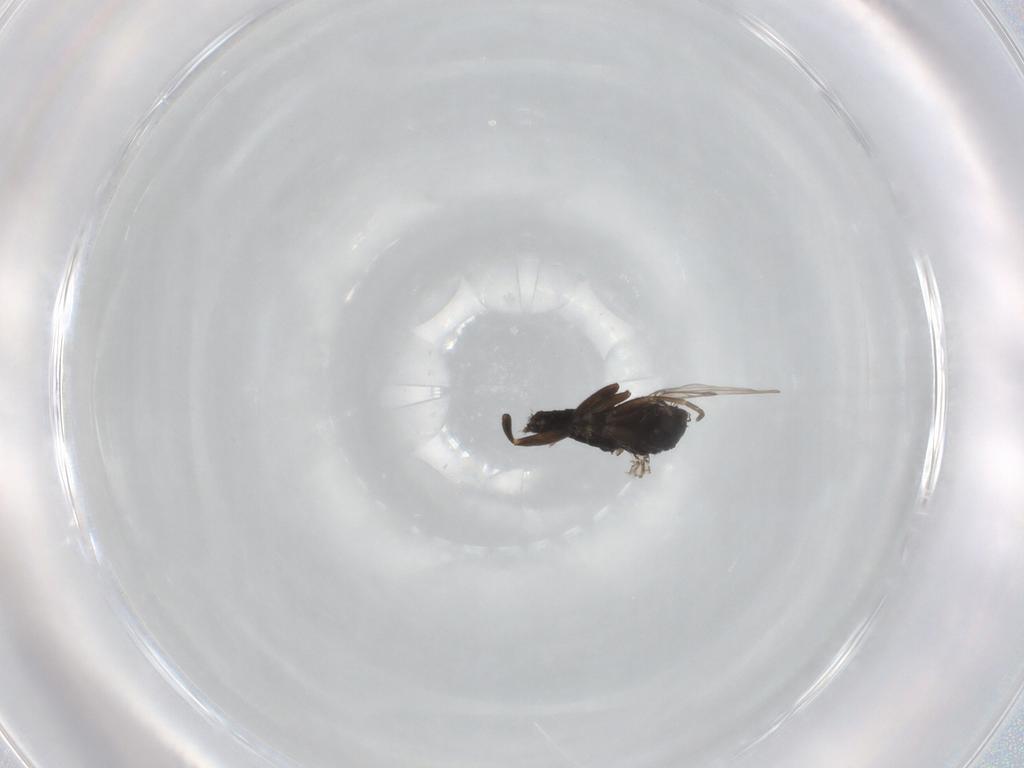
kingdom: Animalia
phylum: Arthropoda
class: Insecta
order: Diptera
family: Phoridae
